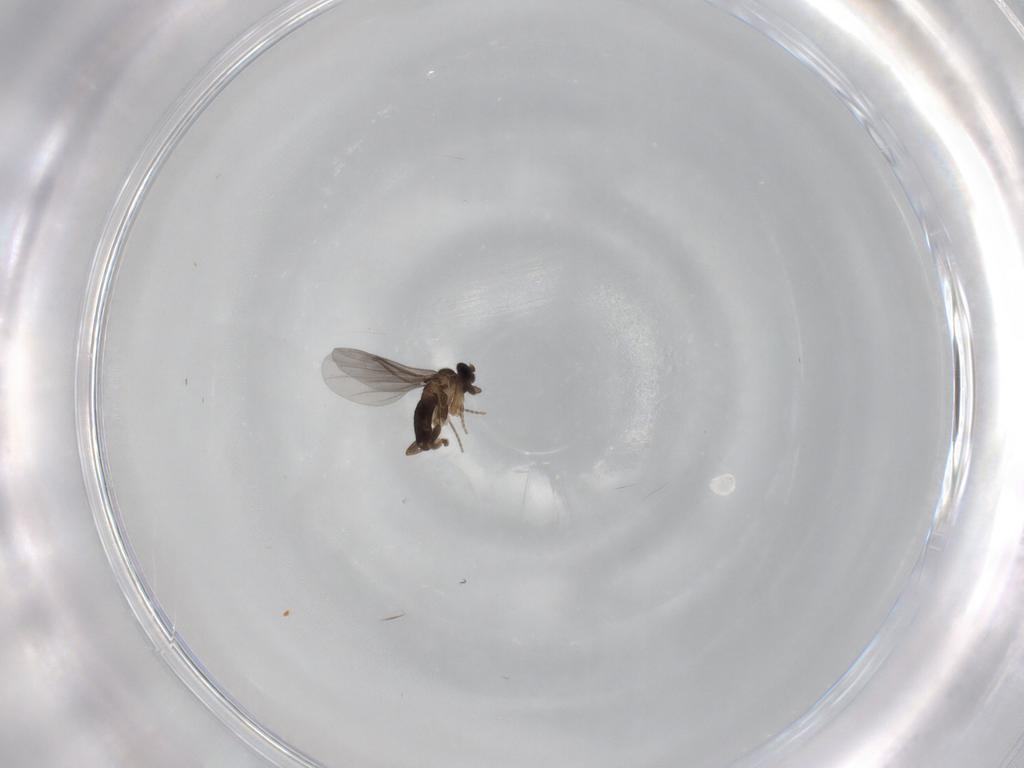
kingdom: Animalia
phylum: Arthropoda
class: Insecta
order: Diptera
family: Phoridae
